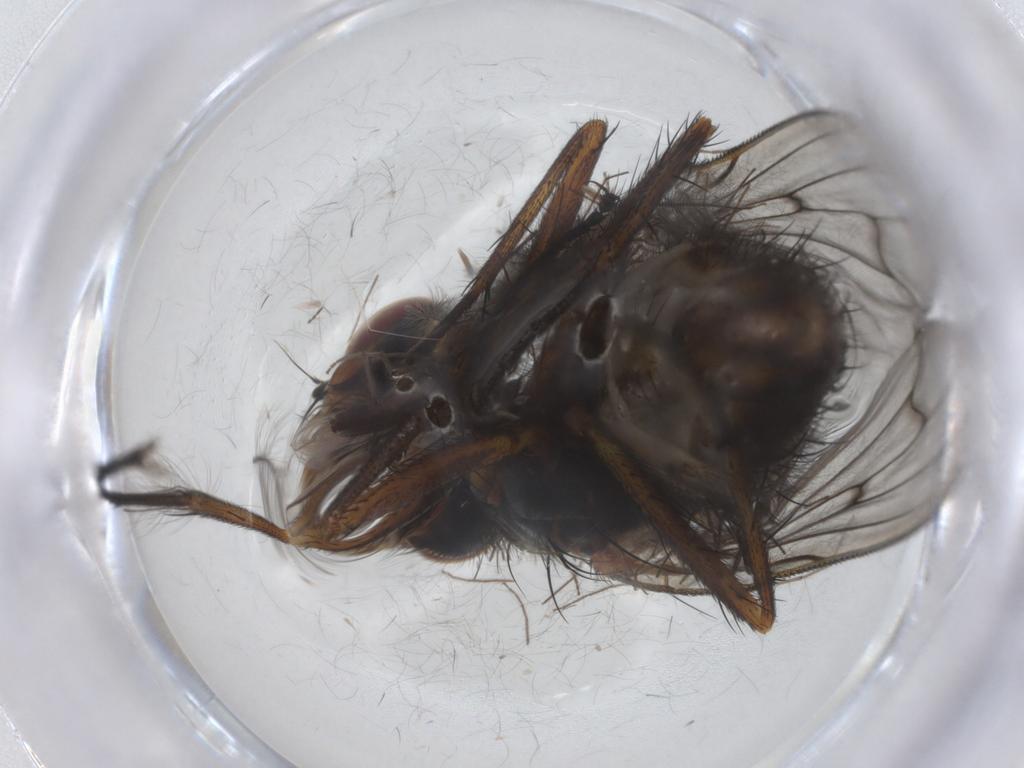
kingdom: Animalia
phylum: Arthropoda
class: Insecta
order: Diptera
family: Anthomyiidae
